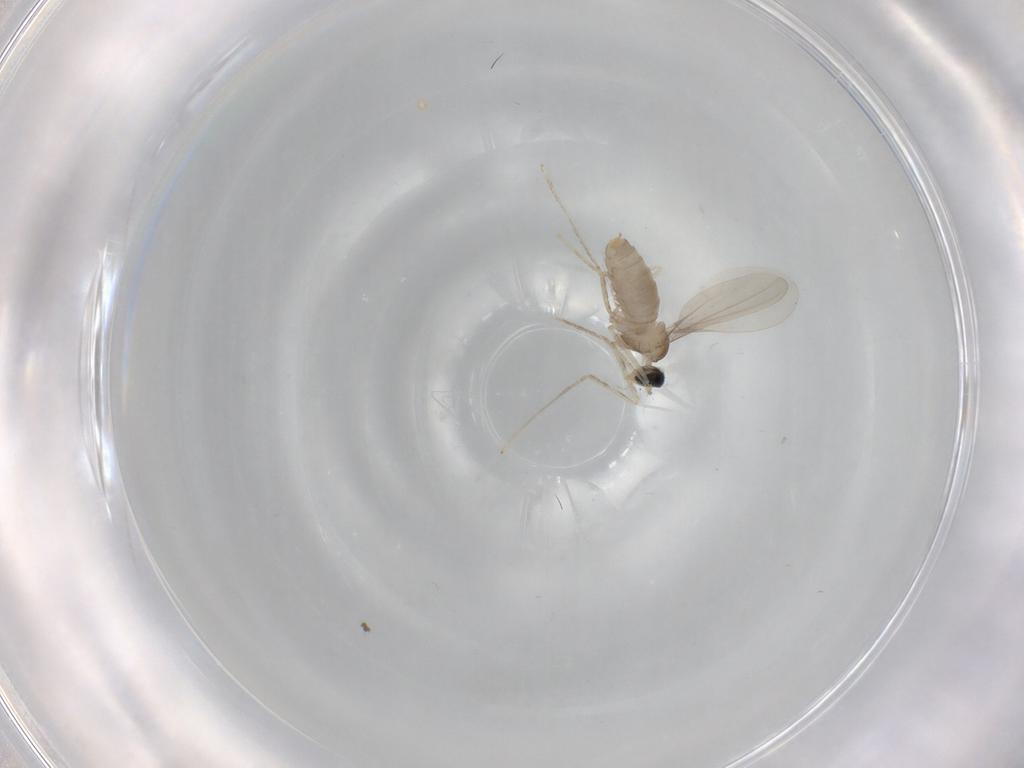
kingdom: Animalia
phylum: Arthropoda
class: Insecta
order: Diptera
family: Cecidomyiidae
